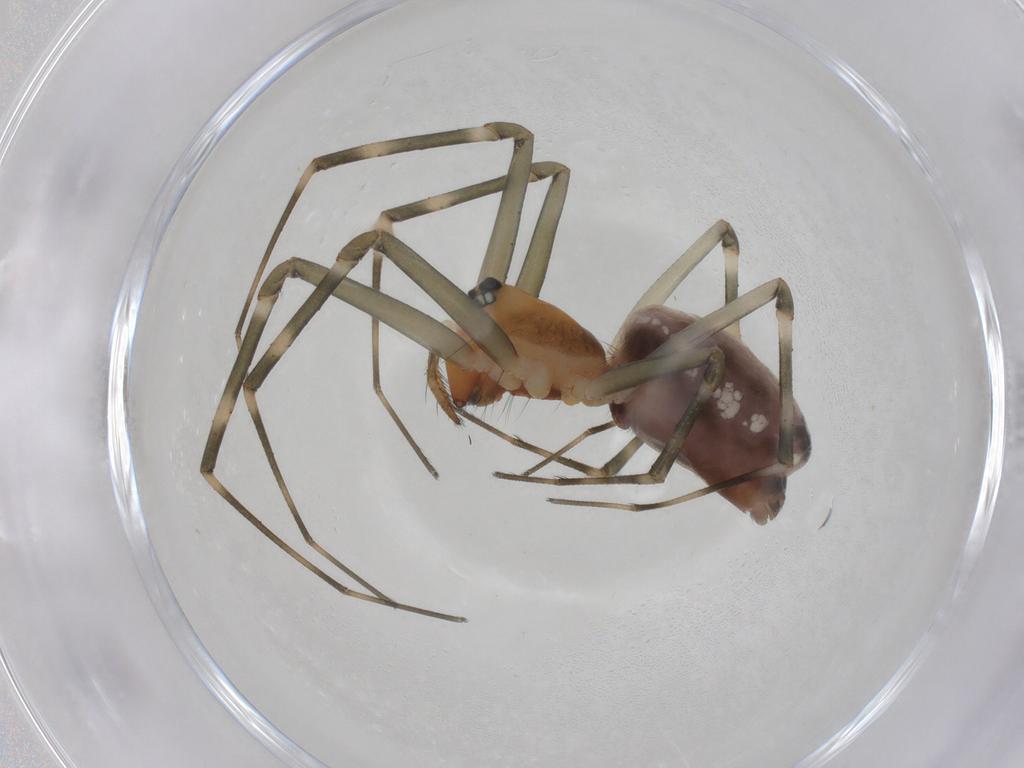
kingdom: Animalia
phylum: Arthropoda
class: Arachnida
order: Araneae
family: Linyphiidae
